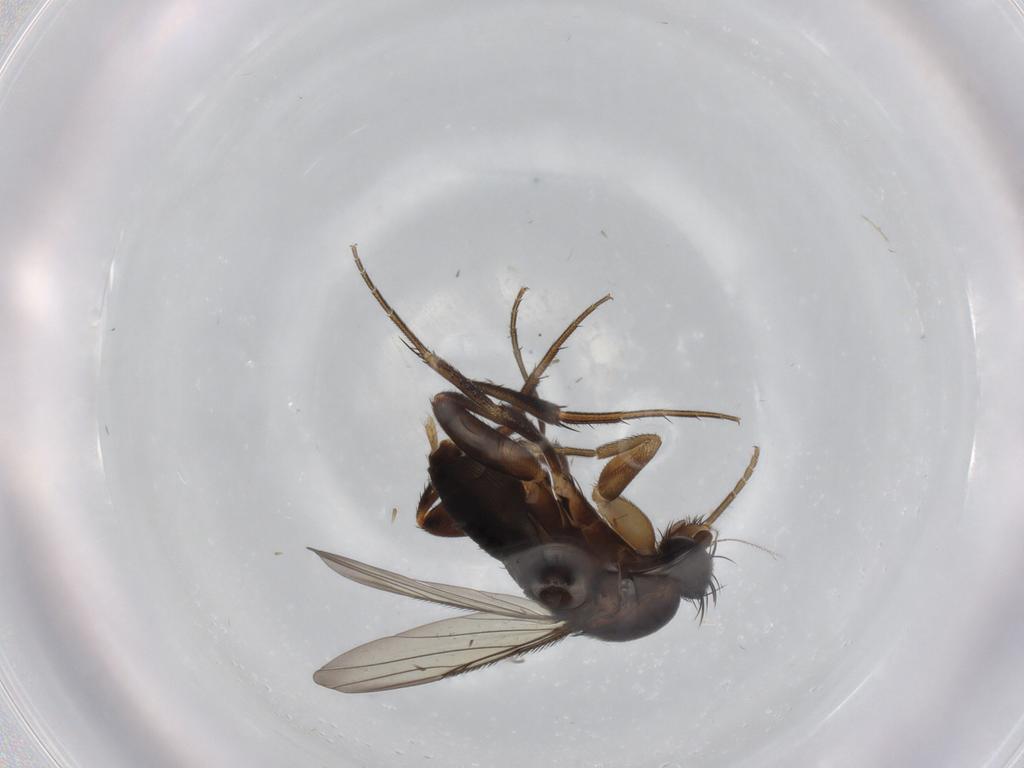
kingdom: Animalia
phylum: Arthropoda
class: Insecta
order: Diptera
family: Phoridae
